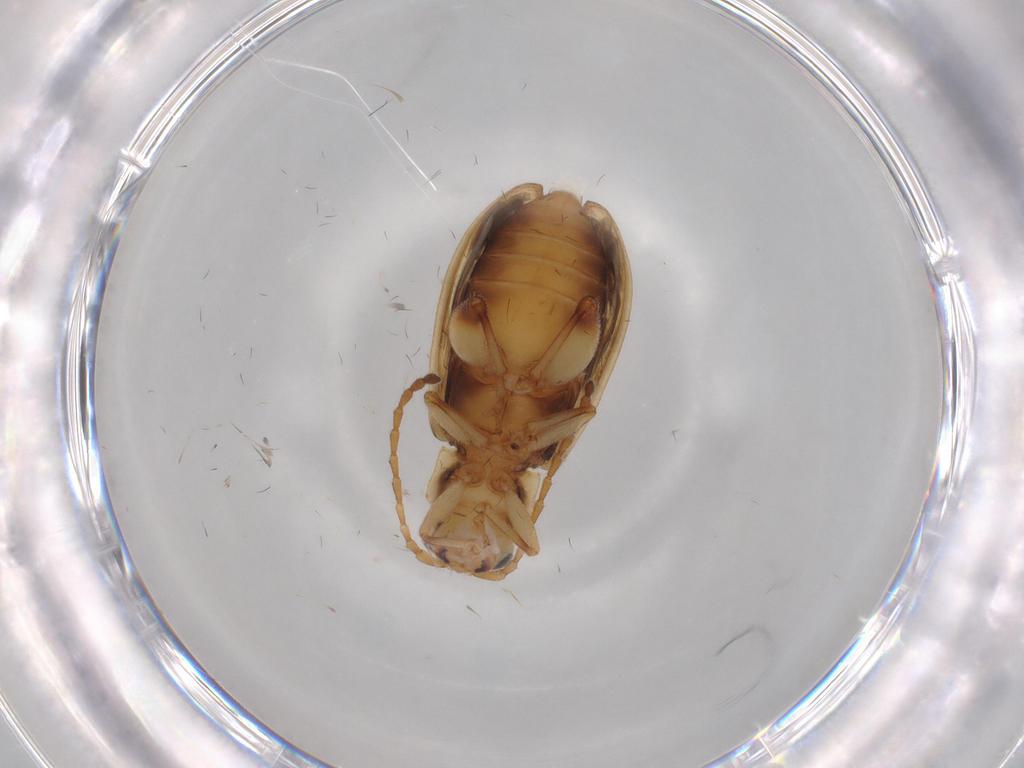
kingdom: Animalia
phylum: Arthropoda
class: Insecta
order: Coleoptera
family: Chrysomelidae
